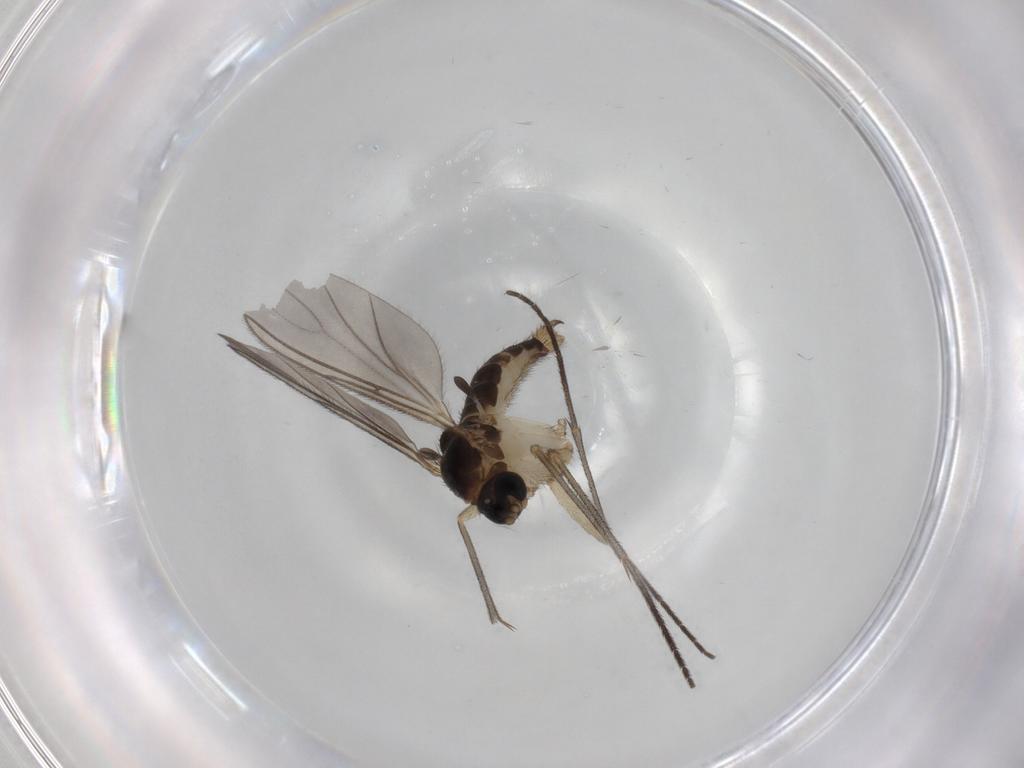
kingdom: Animalia
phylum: Arthropoda
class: Insecta
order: Diptera
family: Sciaridae
